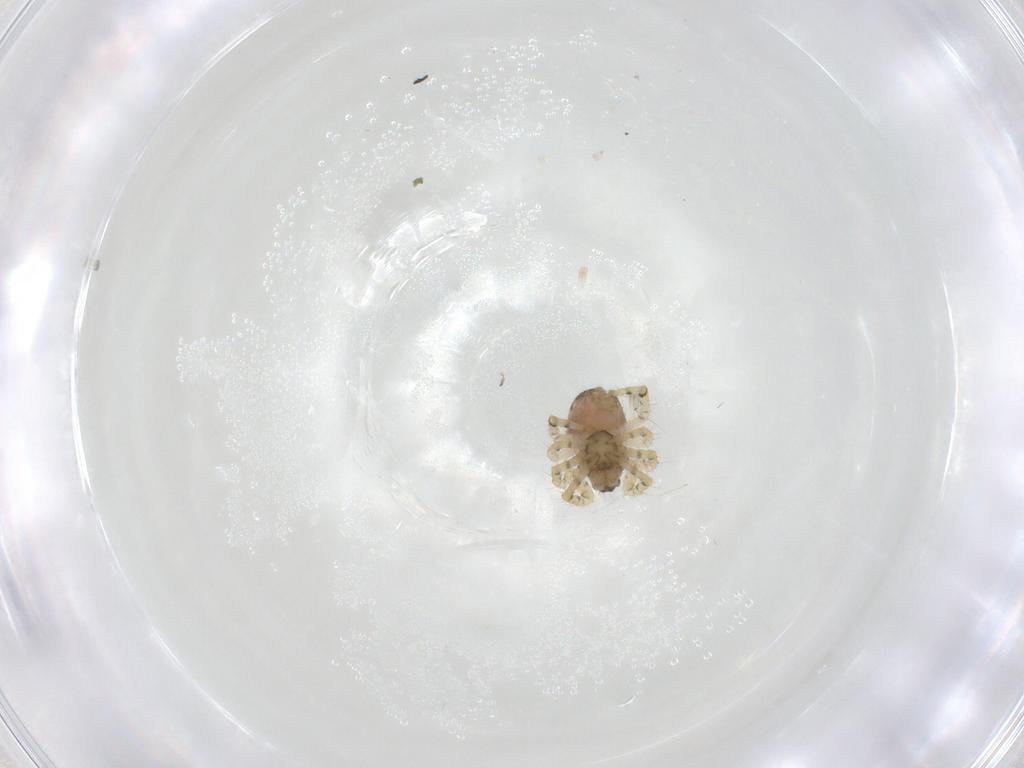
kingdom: Animalia
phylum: Arthropoda
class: Arachnida
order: Araneae
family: Theridiidae
